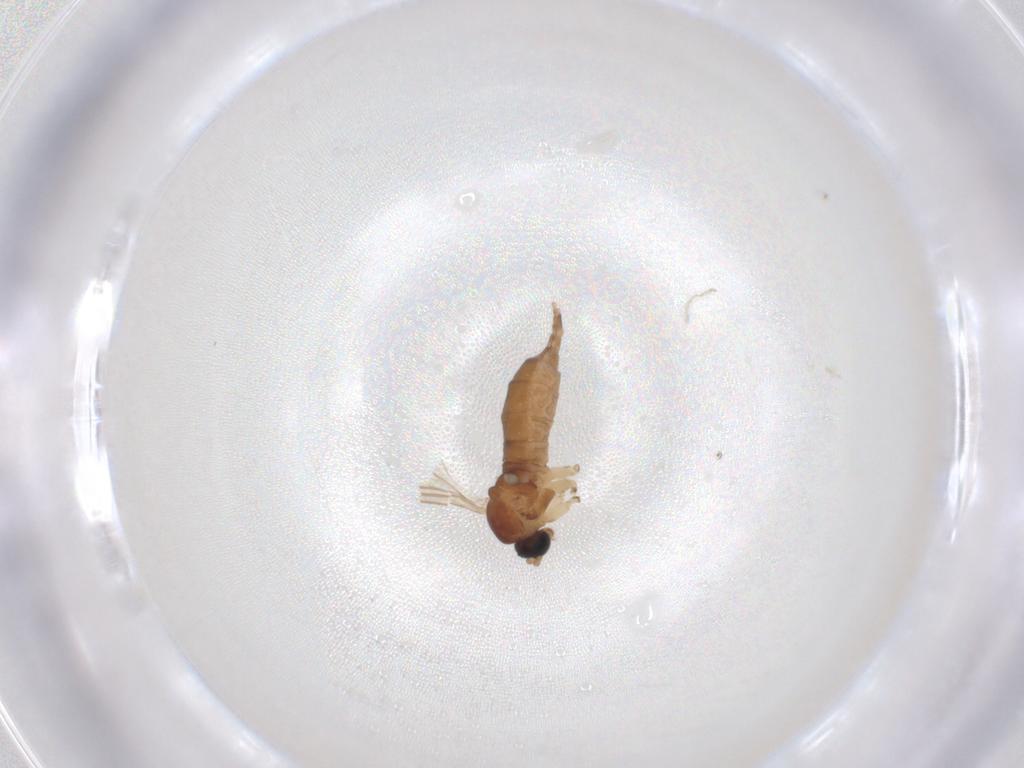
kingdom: Animalia
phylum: Arthropoda
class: Insecta
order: Diptera
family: Sciaridae
